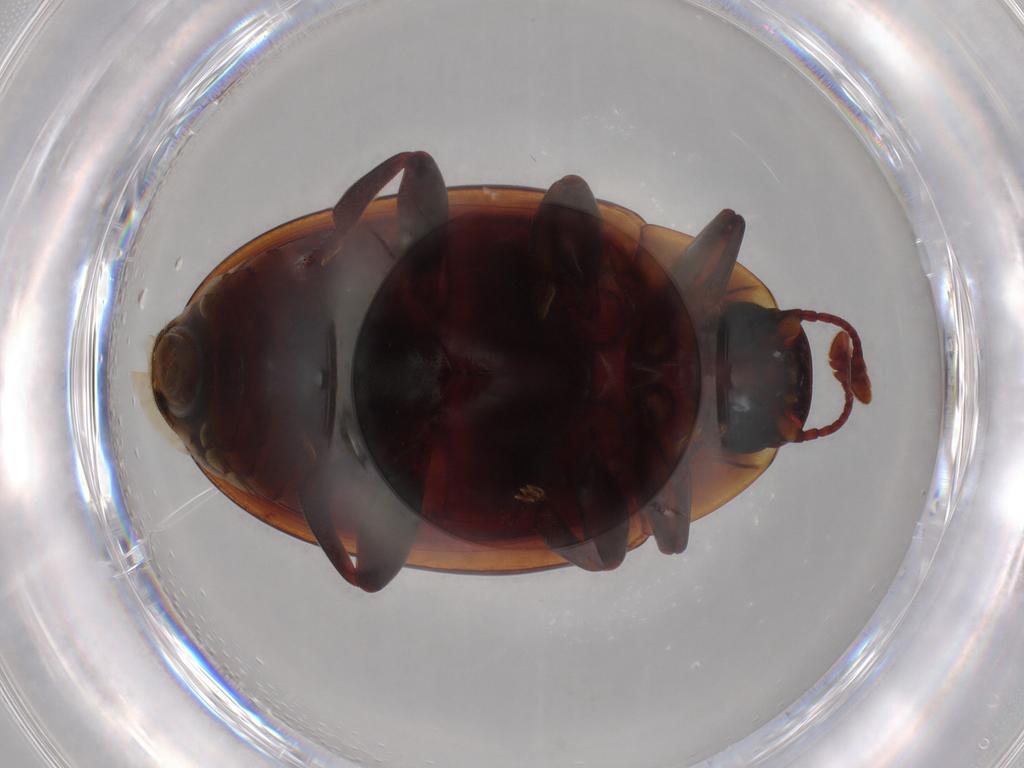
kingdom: Animalia
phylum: Arthropoda
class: Insecta
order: Coleoptera
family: Zopheridae
